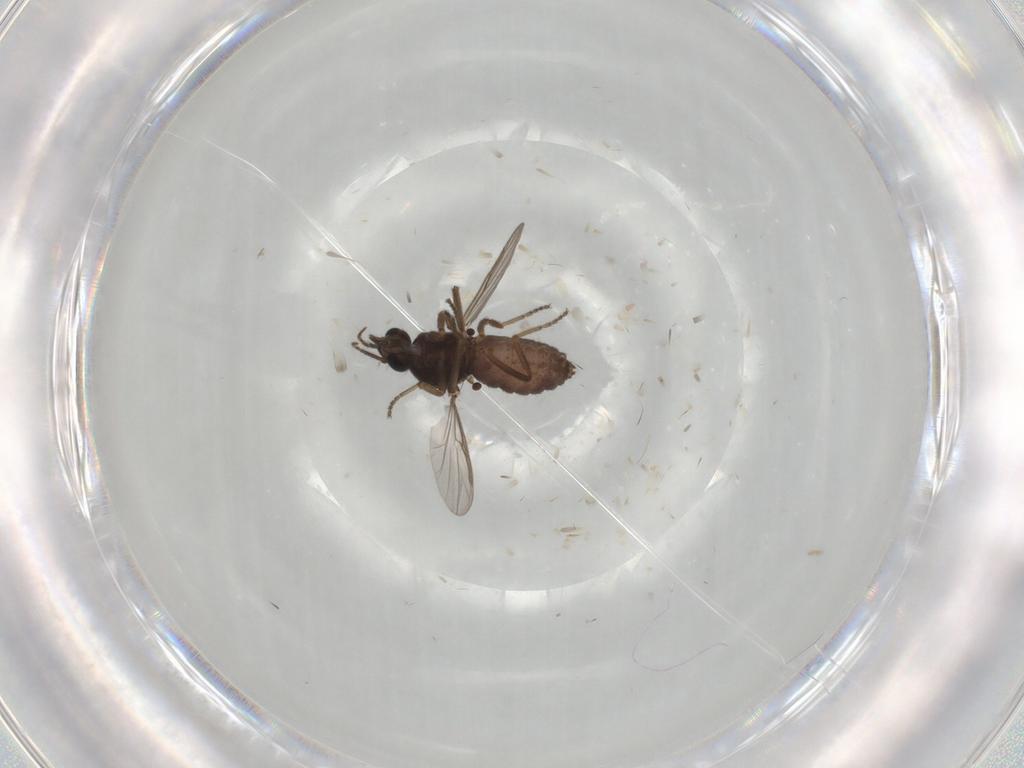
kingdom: Animalia
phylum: Arthropoda
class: Insecta
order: Diptera
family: Ceratopogonidae
